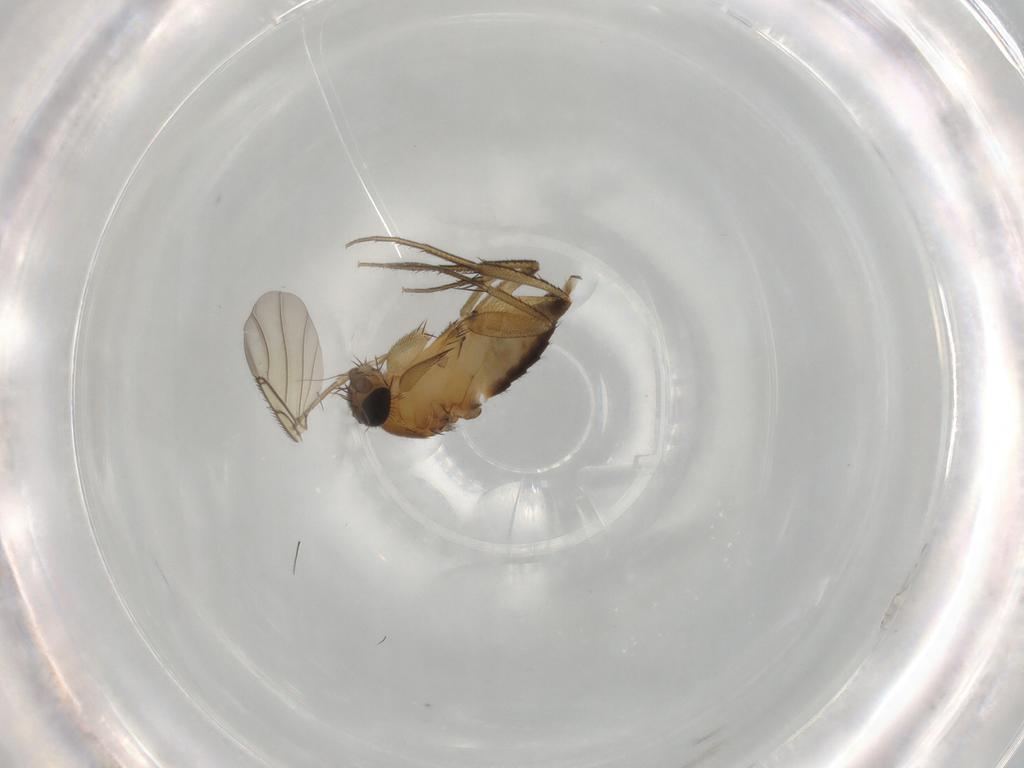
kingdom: Animalia
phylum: Arthropoda
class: Insecta
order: Diptera
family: Phoridae
